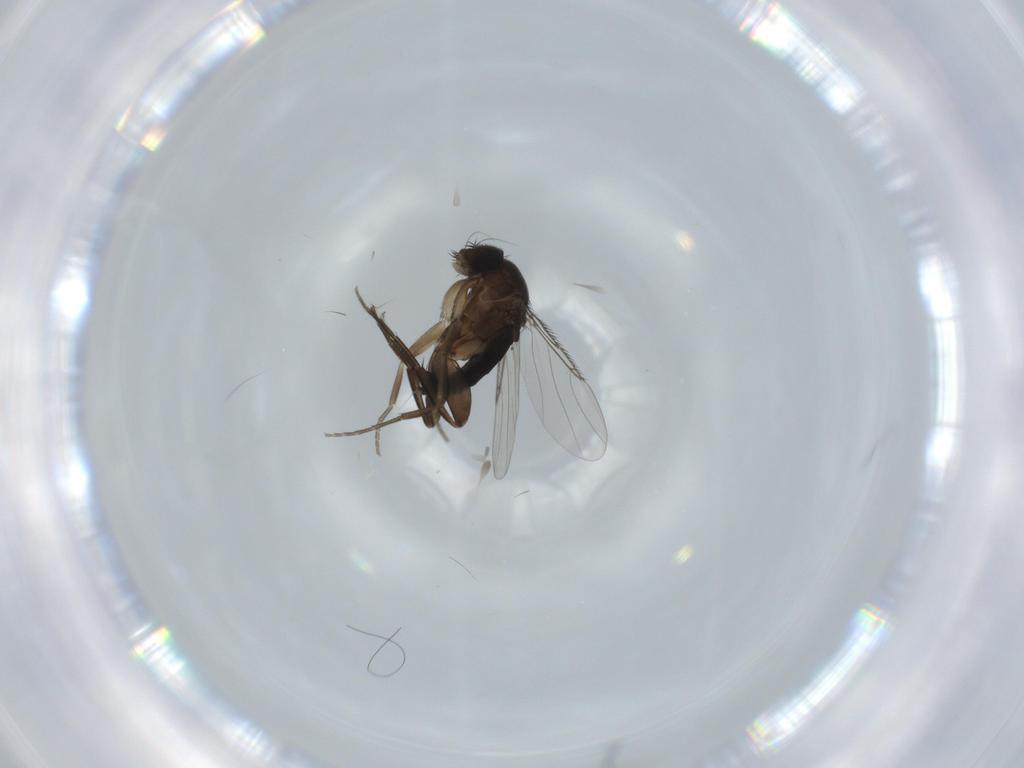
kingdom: Animalia
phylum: Arthropoda
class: Insecta
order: Diptera
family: Phoridae
